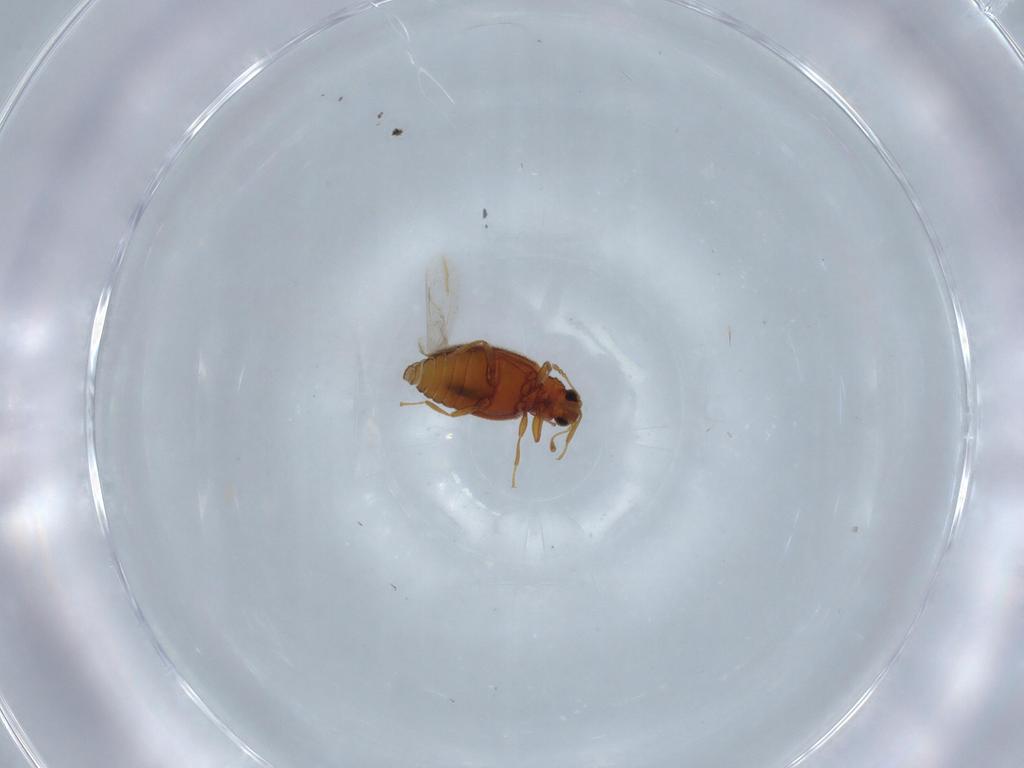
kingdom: Animalia
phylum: Arthropoda
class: Insecta
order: Coleoptera
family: Latridiidae
